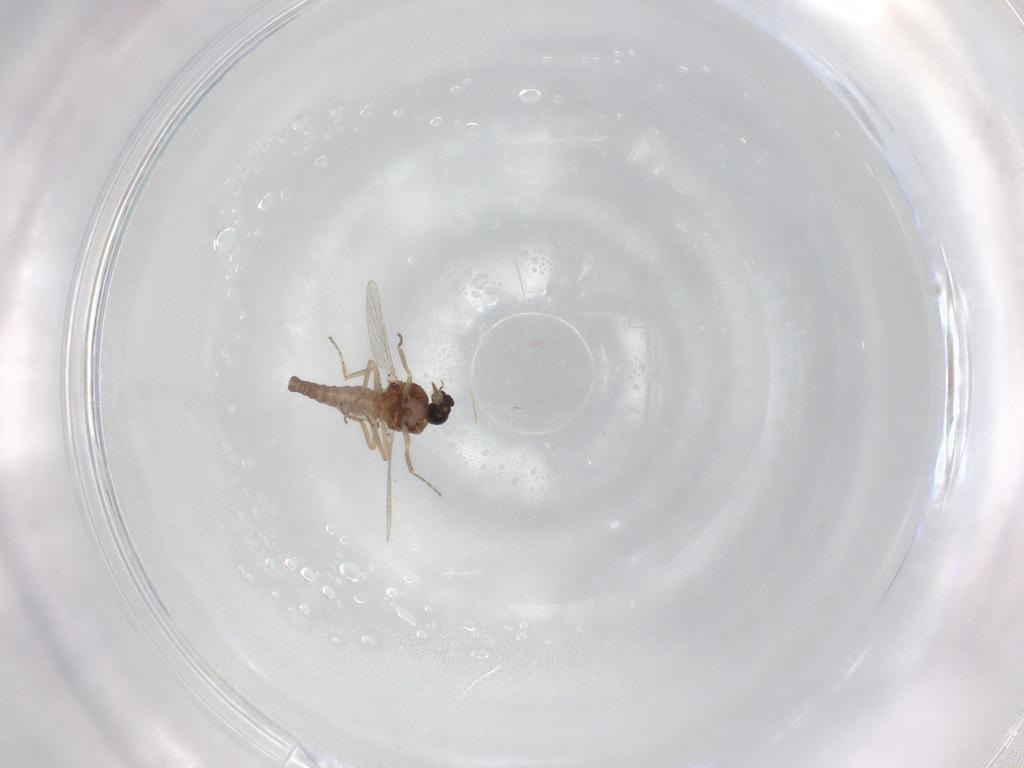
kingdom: Animalia
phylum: Arthropoda
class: Insecta
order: Diptera
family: Ceratopogonidae
